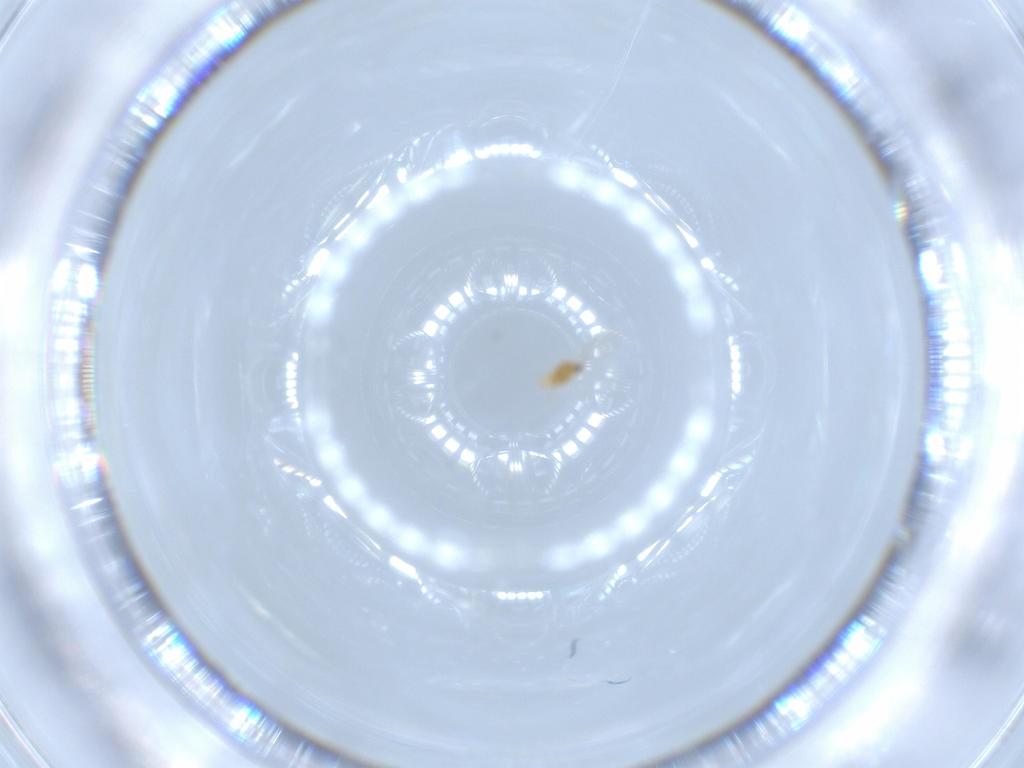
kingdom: Animalia
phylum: Arthropoda
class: Insecta
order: Hemiptera
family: Diaspididae
